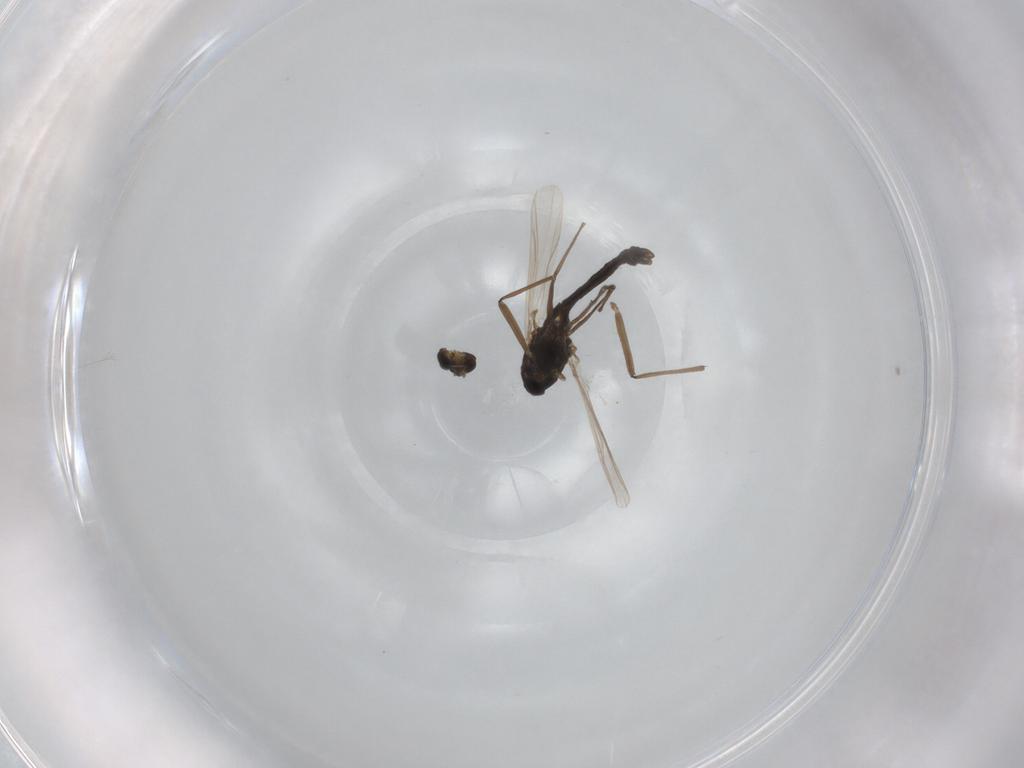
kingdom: Animalia
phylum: Arthropoda
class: Insecta
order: Diptera
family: Chironomidae
